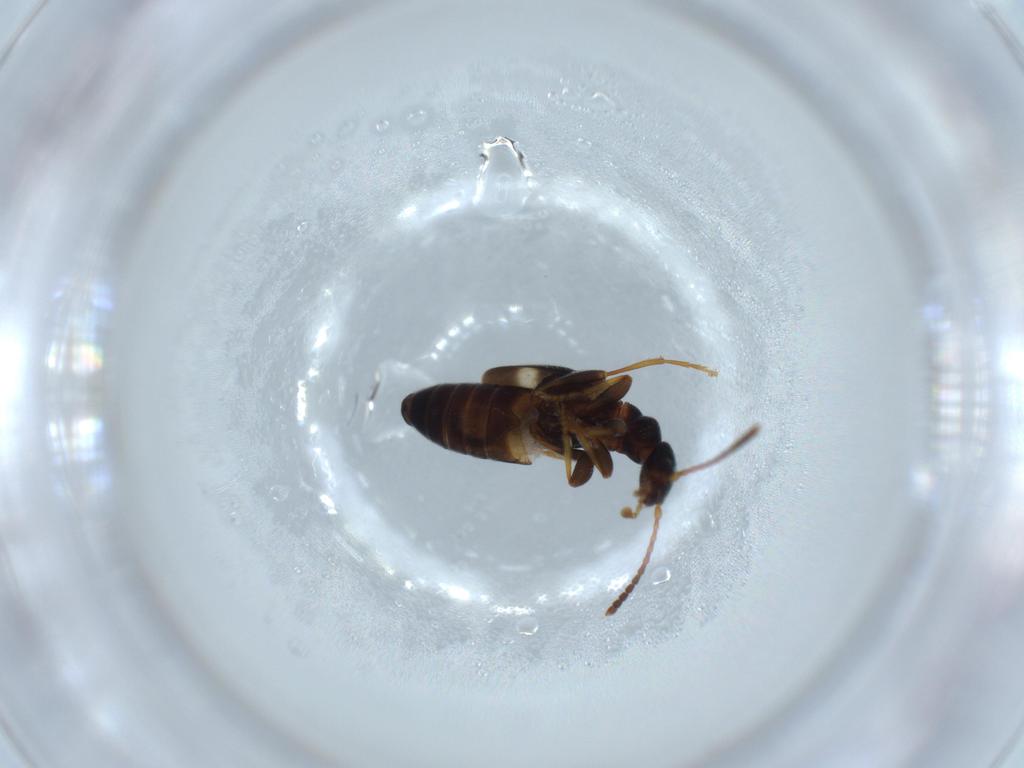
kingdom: Animalia
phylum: Arthropoda
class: Insecta
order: Coleoptera
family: Anthicidae
